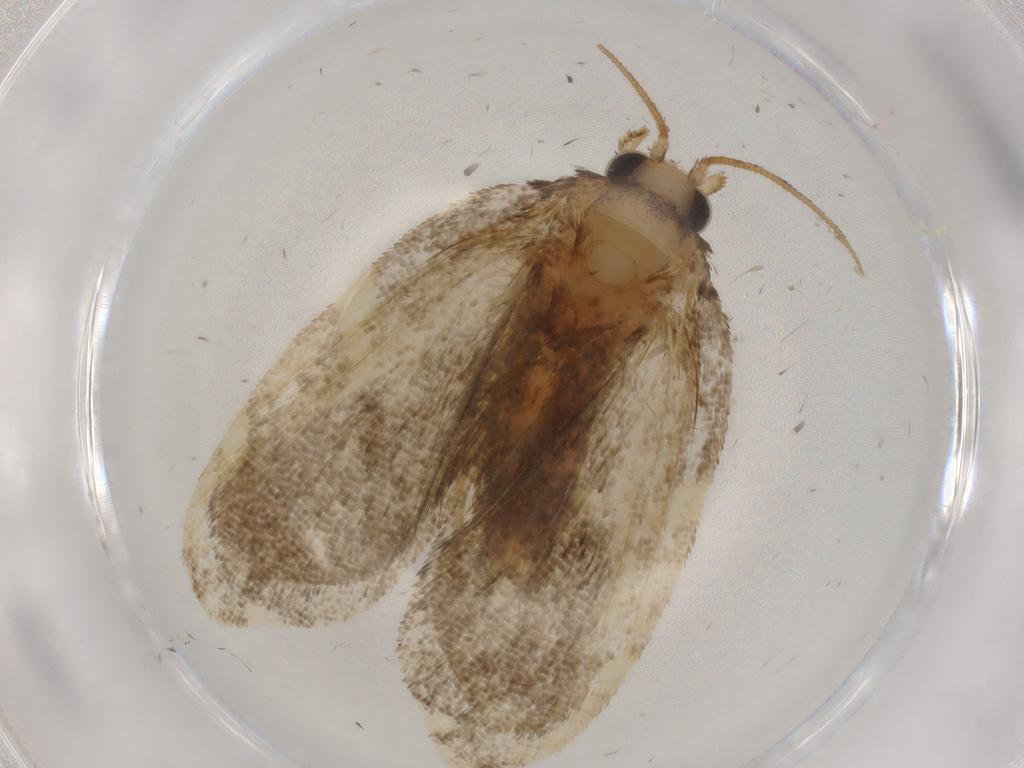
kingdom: Animalia
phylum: Arthropoda
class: Insecta
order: Lepidoptera
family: Psychidae
